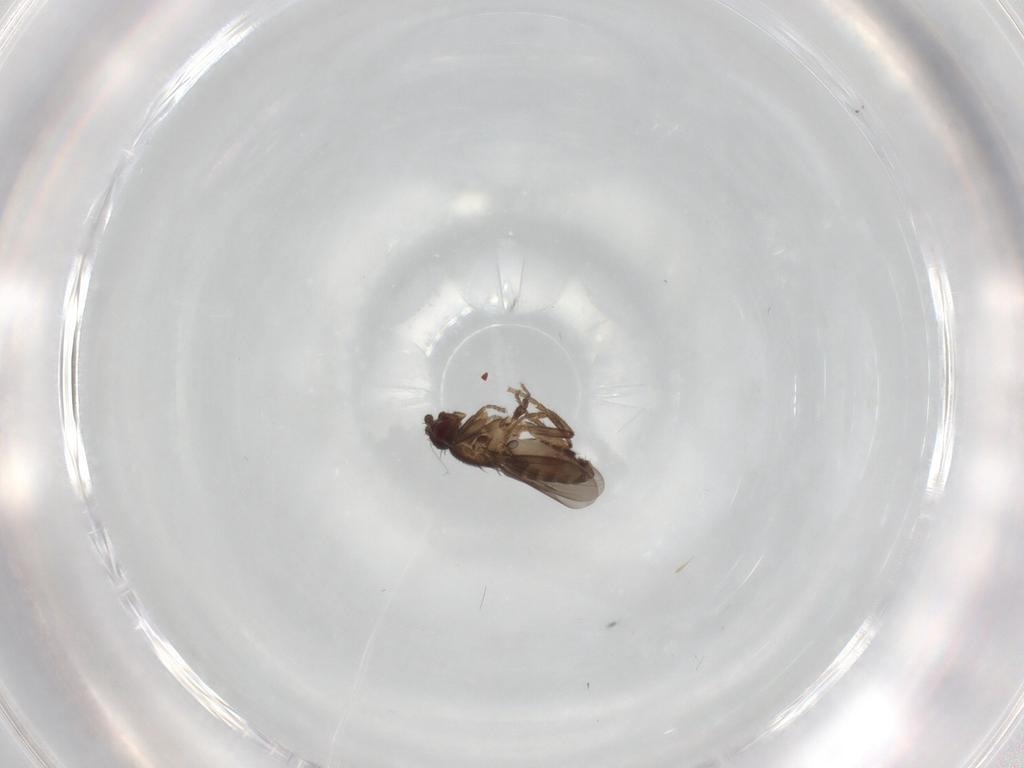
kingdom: Animalia
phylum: Arthropoda
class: Insecta
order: Diptera
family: Sphaeroceridae
